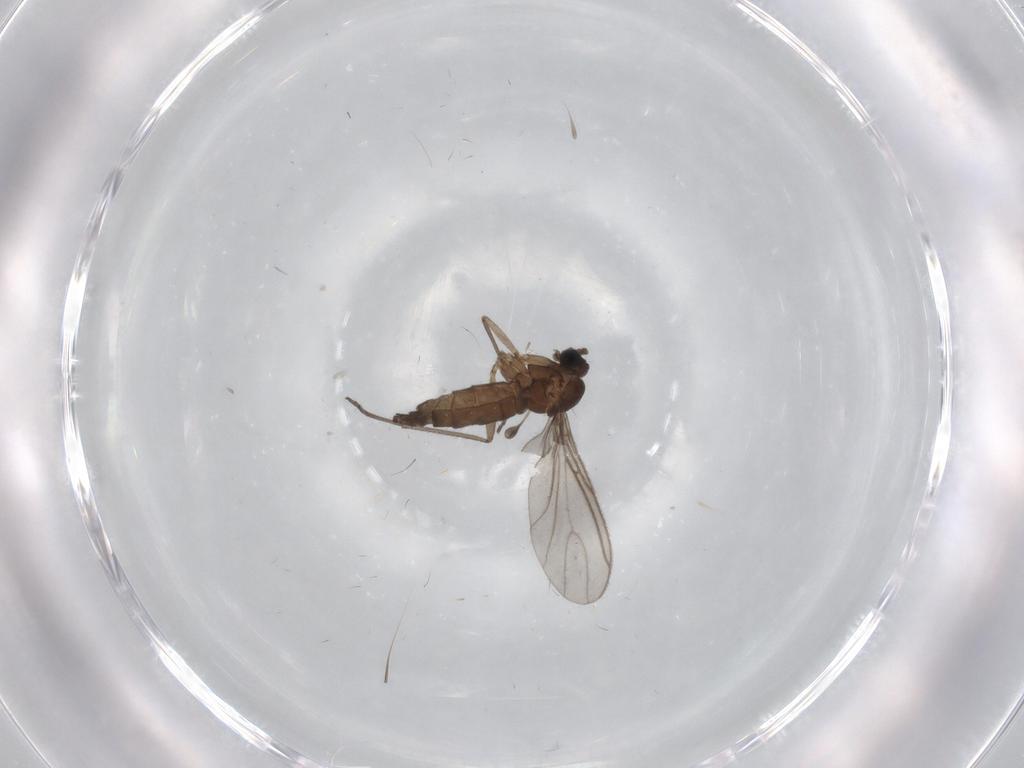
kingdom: Animalia
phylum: Arthropoda
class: Insecta
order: Diptera
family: Sciaridae
